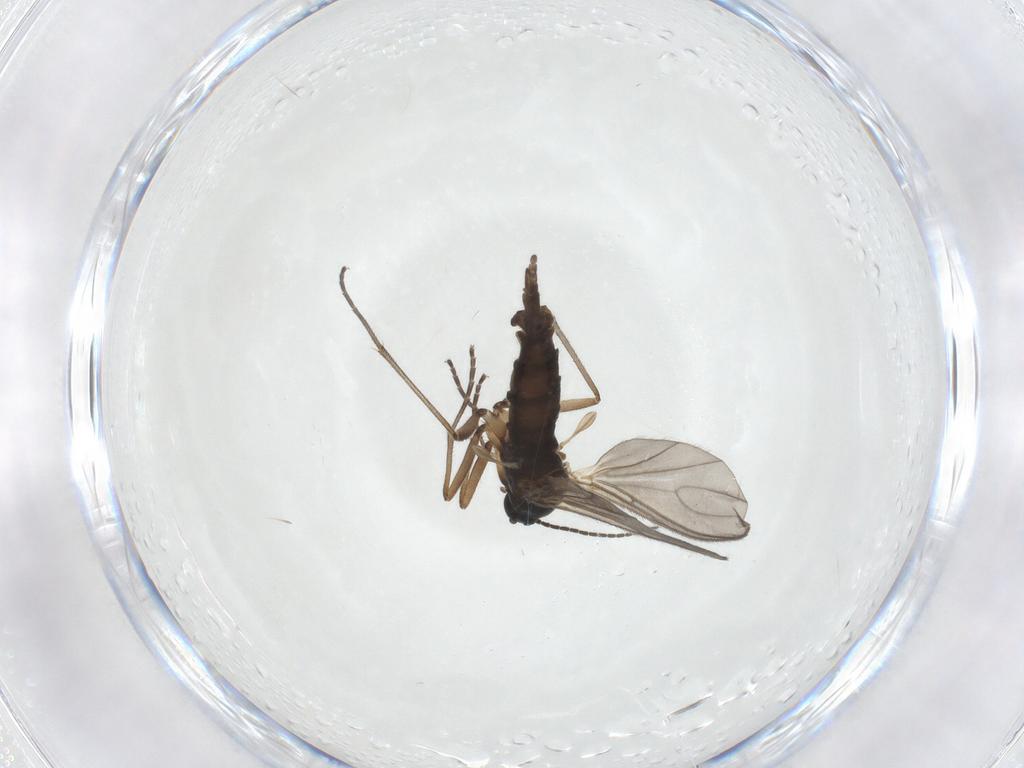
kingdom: Animalia
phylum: Arthropoda
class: Insecta
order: Diptera
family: Sciaridae
